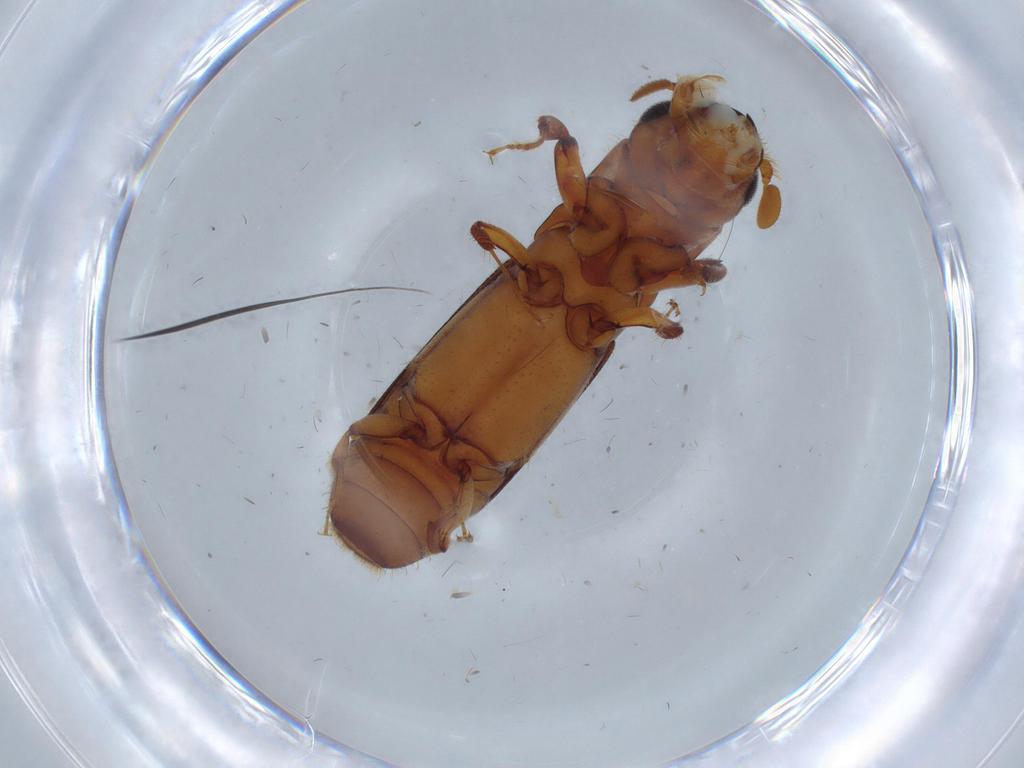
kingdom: Animalia
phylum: Arthropoda
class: Insecta
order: Coleoptera
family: Curculionidae
